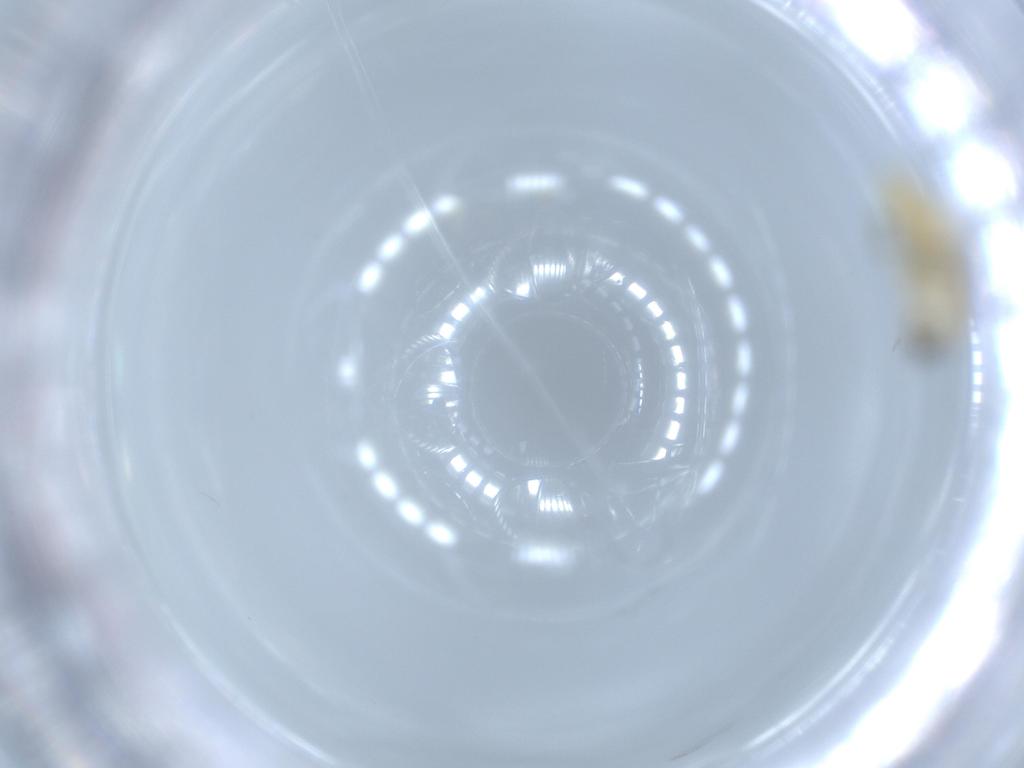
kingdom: Animalia
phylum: Arthropoda
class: Insecta
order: Diptera
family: Chironomidae
